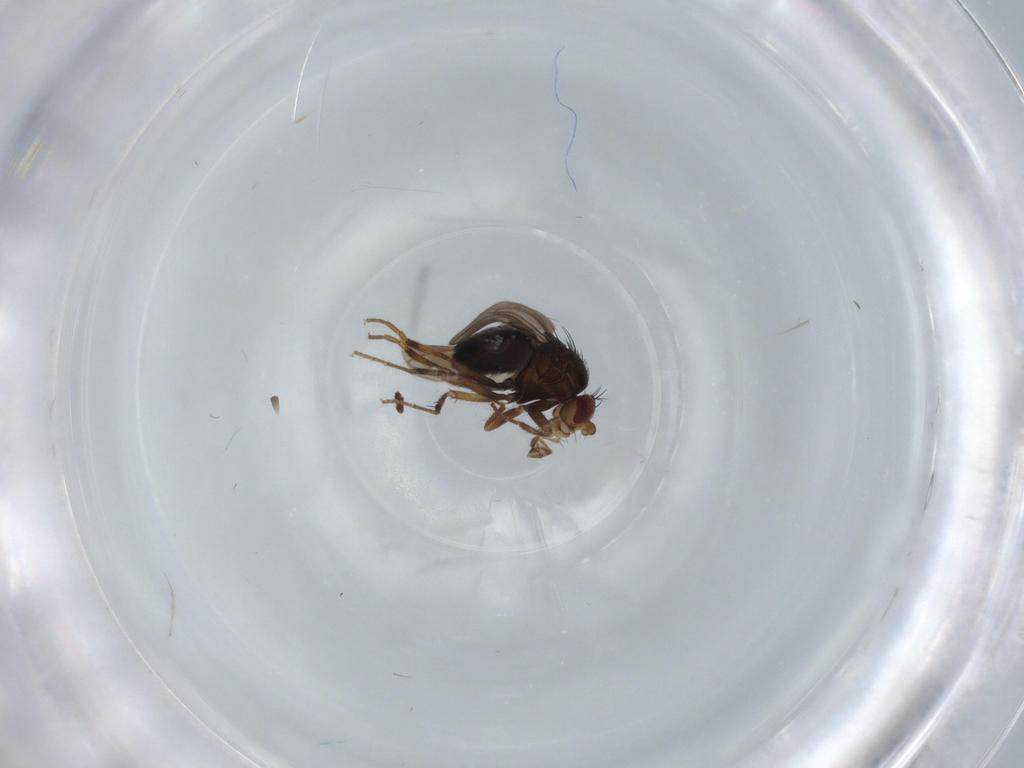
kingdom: Animalia
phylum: Arthropoda
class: Insecta
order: Diptera
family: Sphaeroceridae
